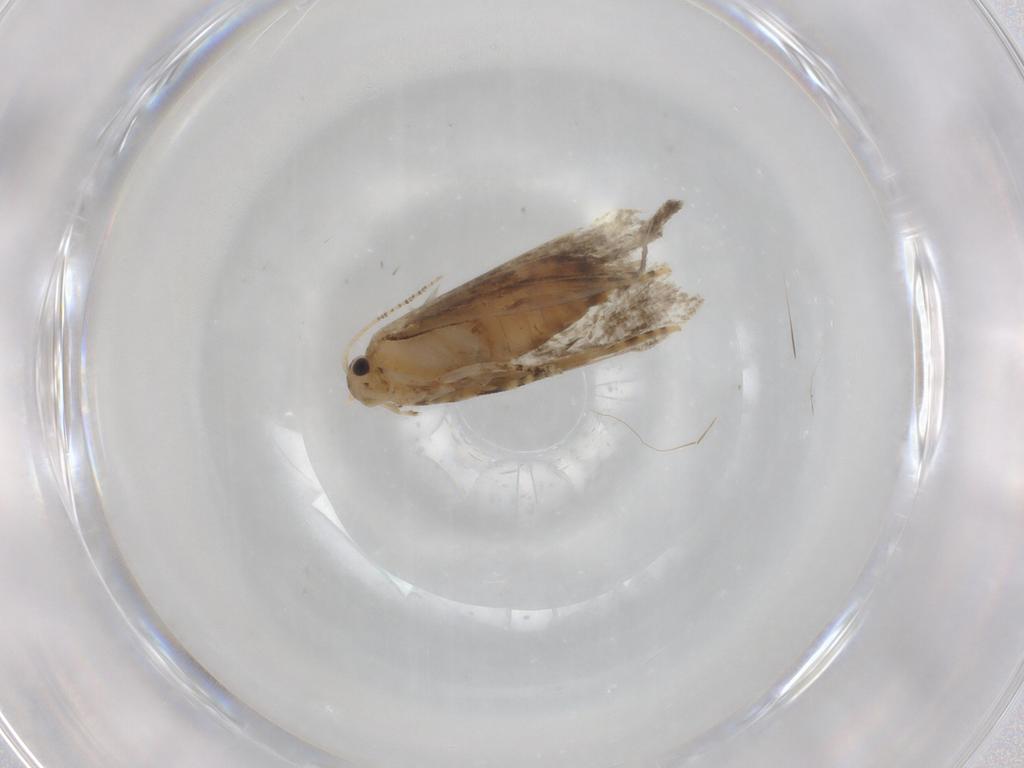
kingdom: Animalia
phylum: Arthropoda
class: Insecta
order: Lepidoptera
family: Dryadaulidae
